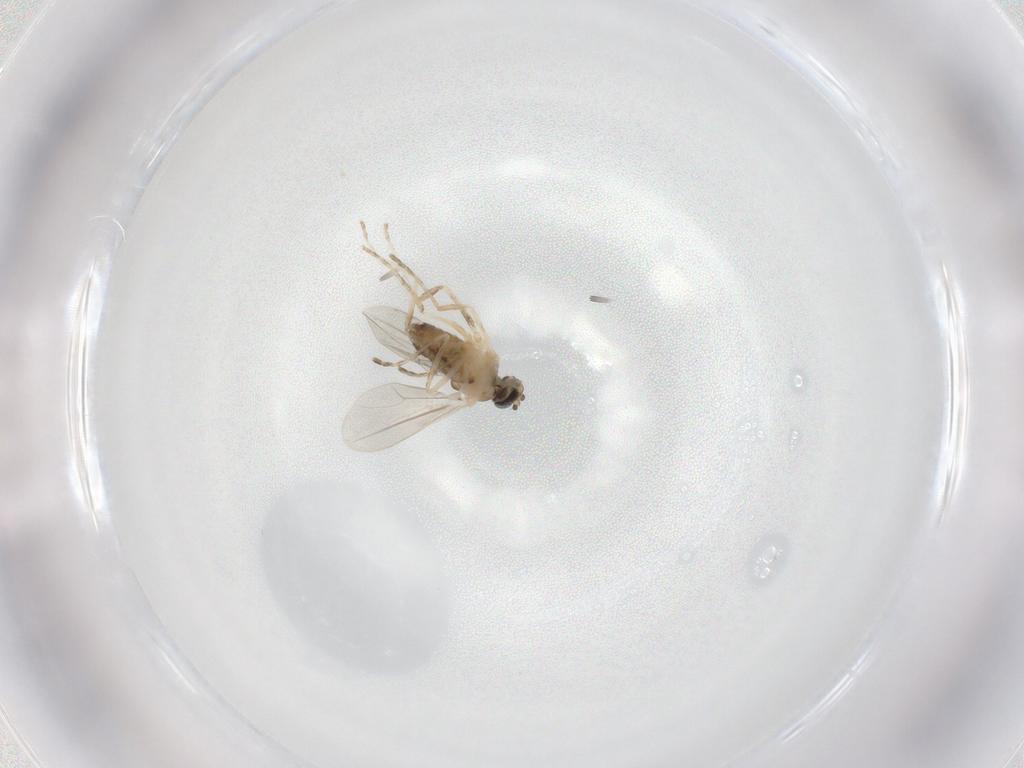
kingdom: Animalia
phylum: Arthropoda
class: Insecta
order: Diptera
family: Cecidomyiidae
